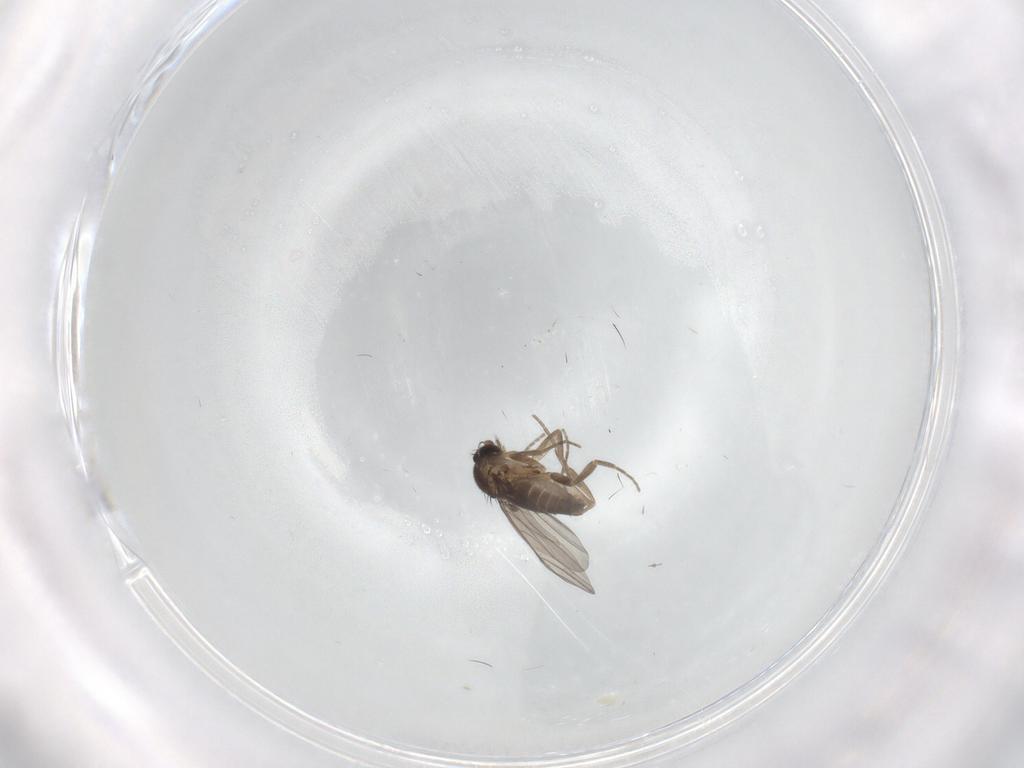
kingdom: Animalia
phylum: Arthropoda
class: Insecta
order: Diptera
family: Phoridae
